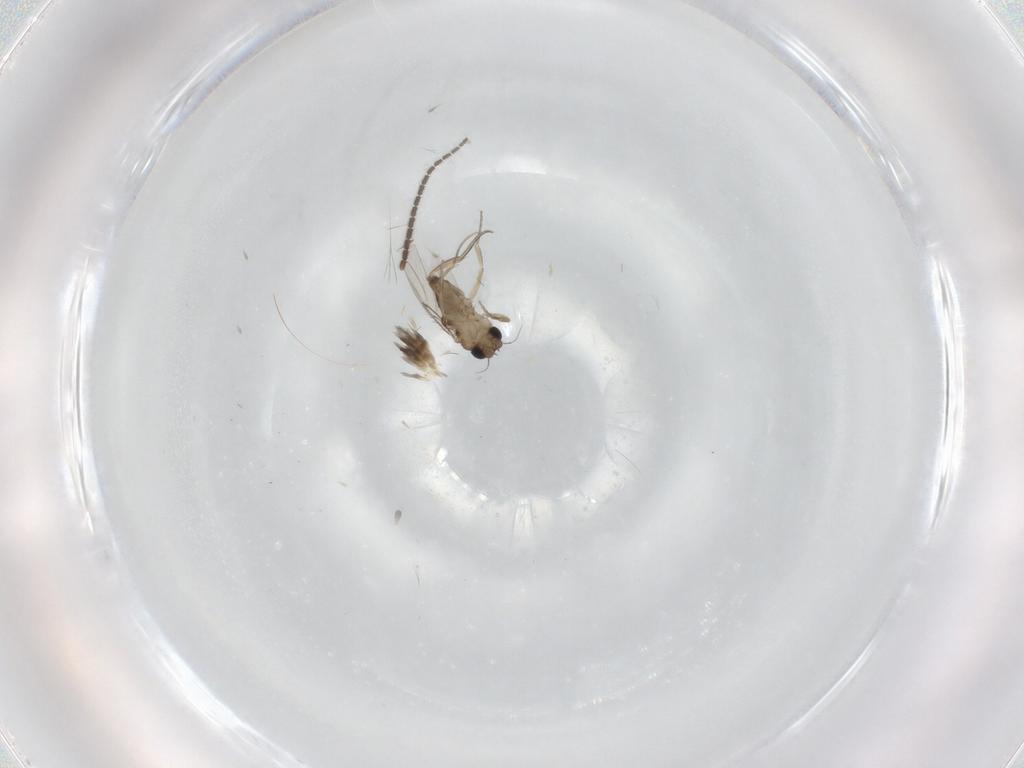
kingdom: Animalia
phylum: Arthropoda
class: Insecta
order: Diptera
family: Phoridae
